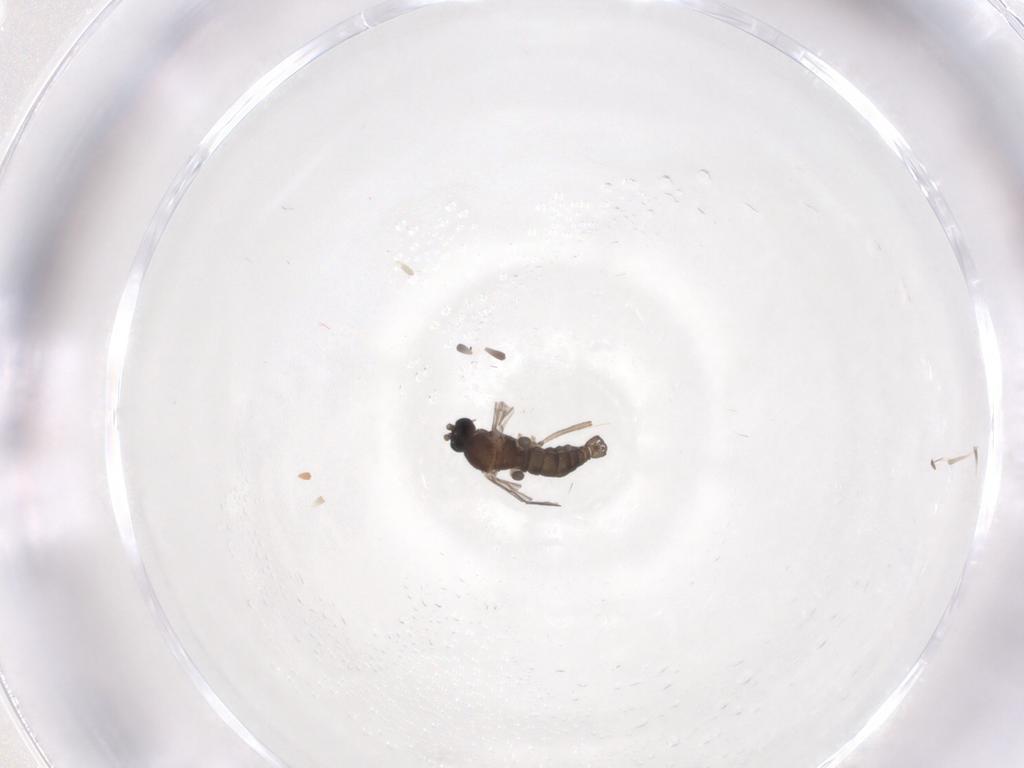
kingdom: Animalia
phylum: Arthropoda
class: Insecta
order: Diptera
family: Sciaridae
